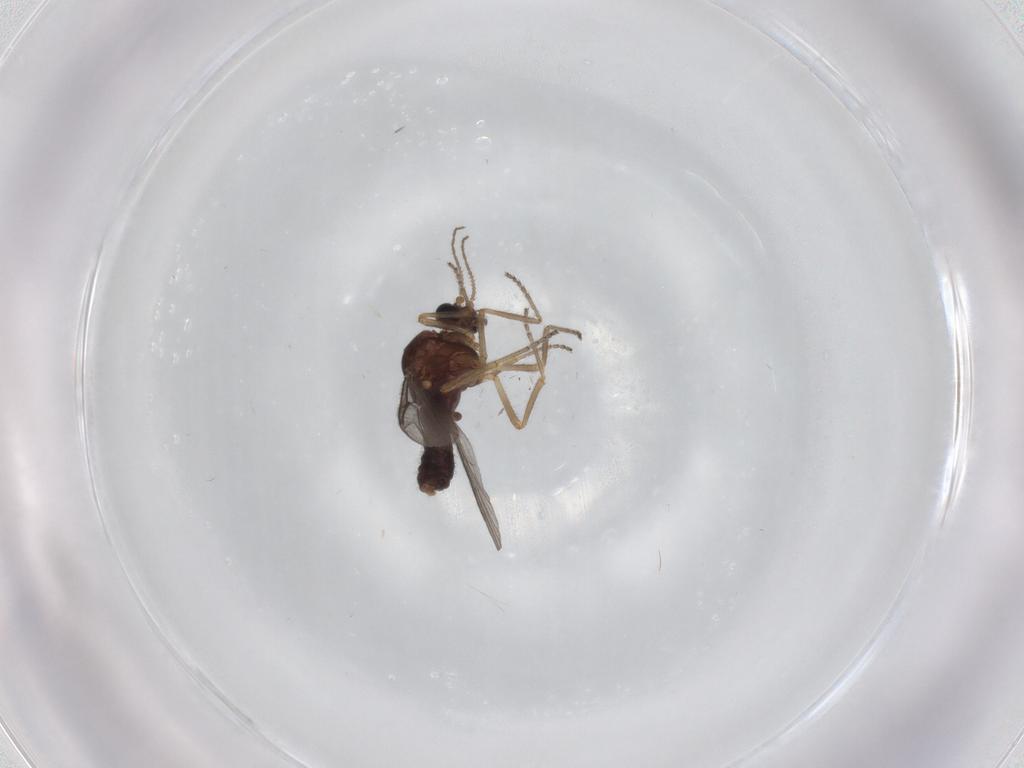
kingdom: Animalia
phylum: Arthropoda
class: Insecta
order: Diptera
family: Ceratopogonidae
